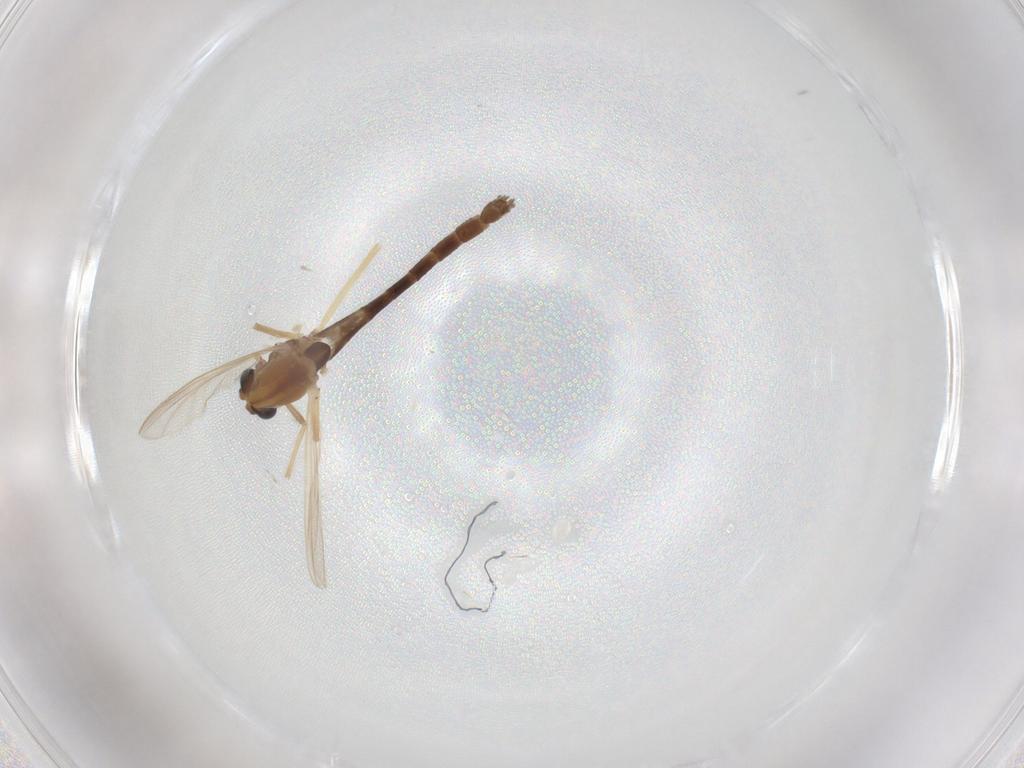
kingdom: Animalia
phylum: Arthropoda
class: Insecta
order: Diptera
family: Chironomidae
